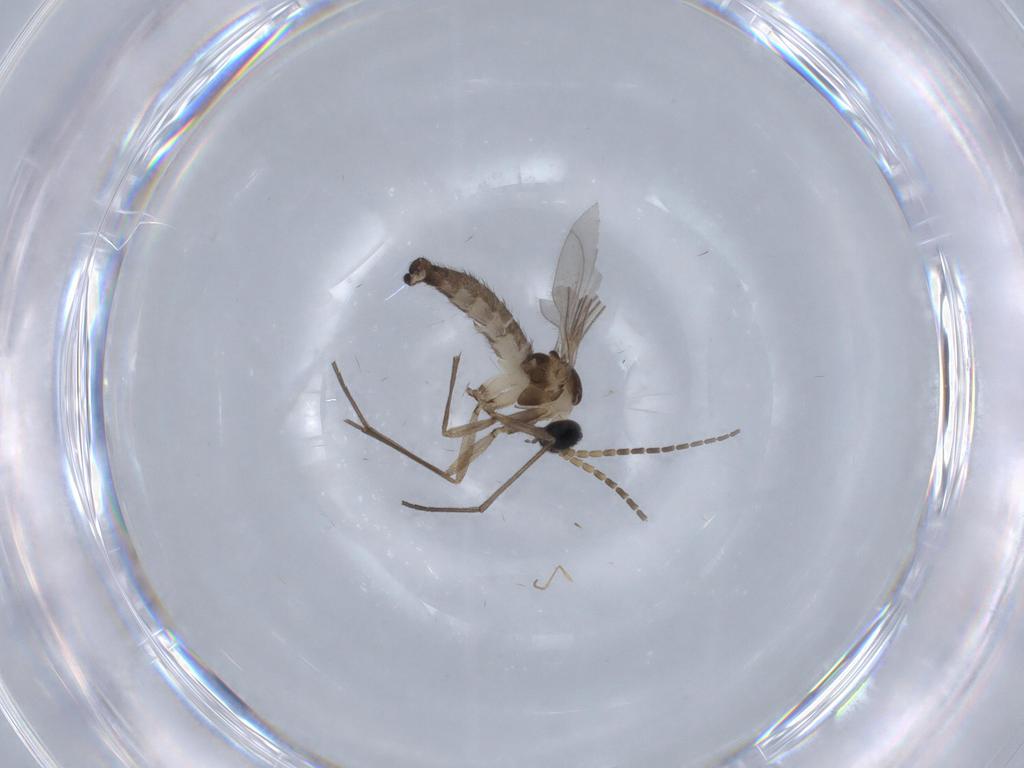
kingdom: Animalia
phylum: Arthropoda
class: Insecta
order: Diptera
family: Sciaridae
